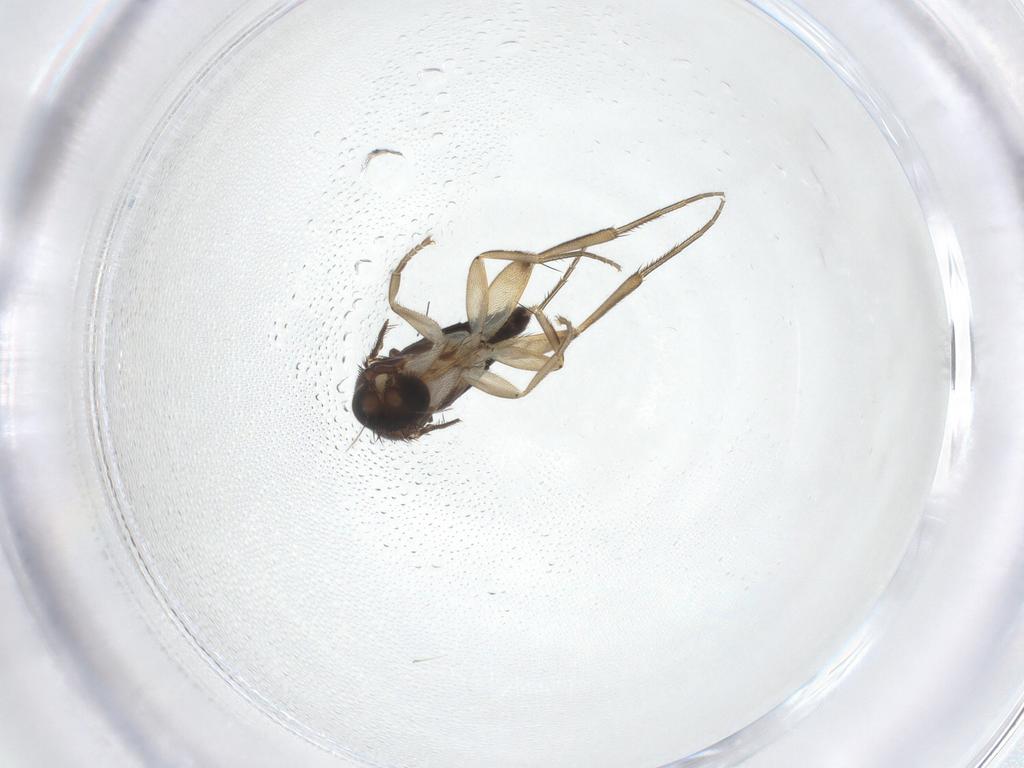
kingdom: Animalia
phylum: Arthropoda
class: Insecta
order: Diptera
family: Phoridae
